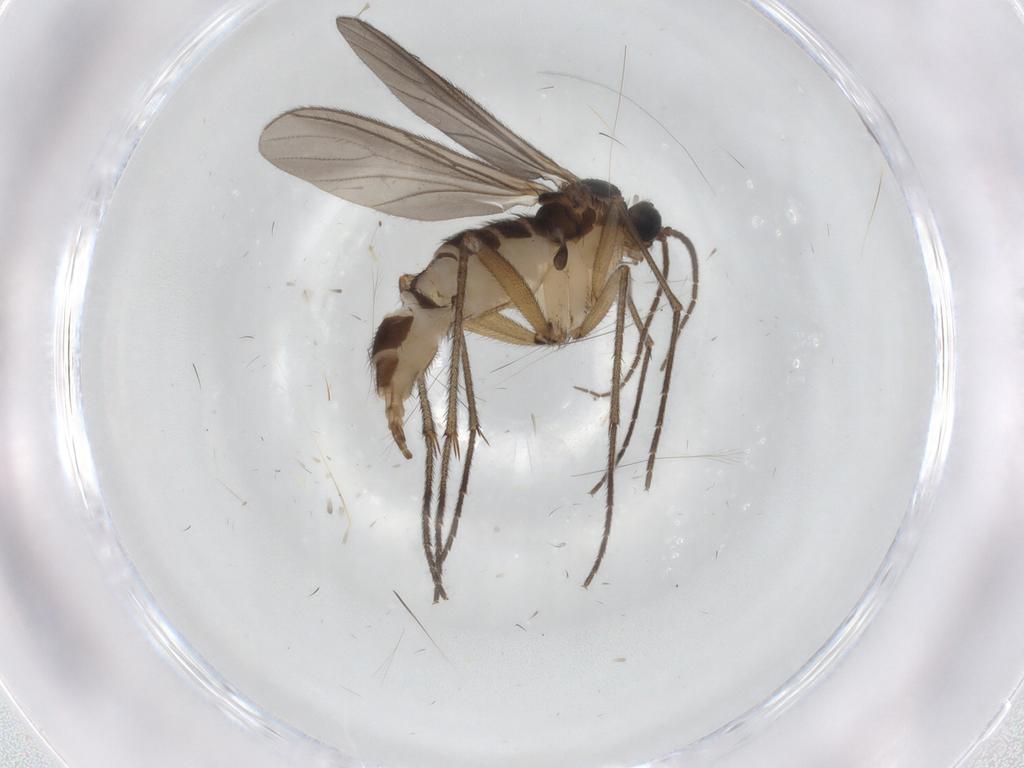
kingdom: Animalia
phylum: Arthropoda
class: Insecta
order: Diptera
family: Sciaridae
